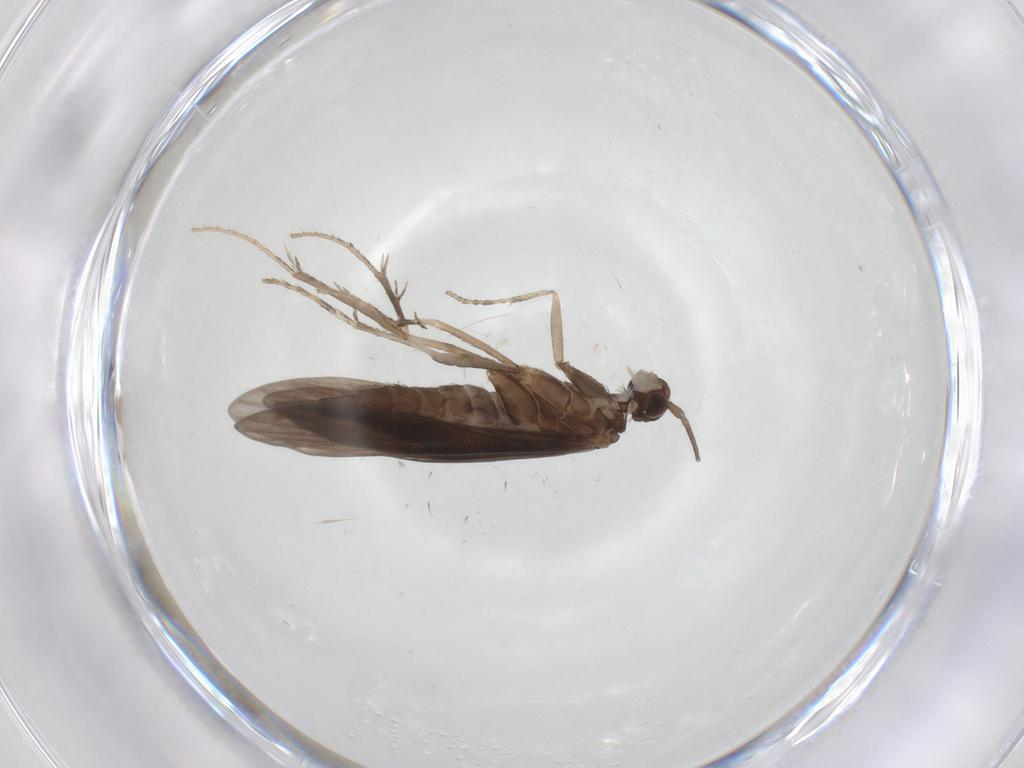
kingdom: Animalia
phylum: Arthropoda
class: Insecta
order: Trichoptera
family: Xiphocentronidae
